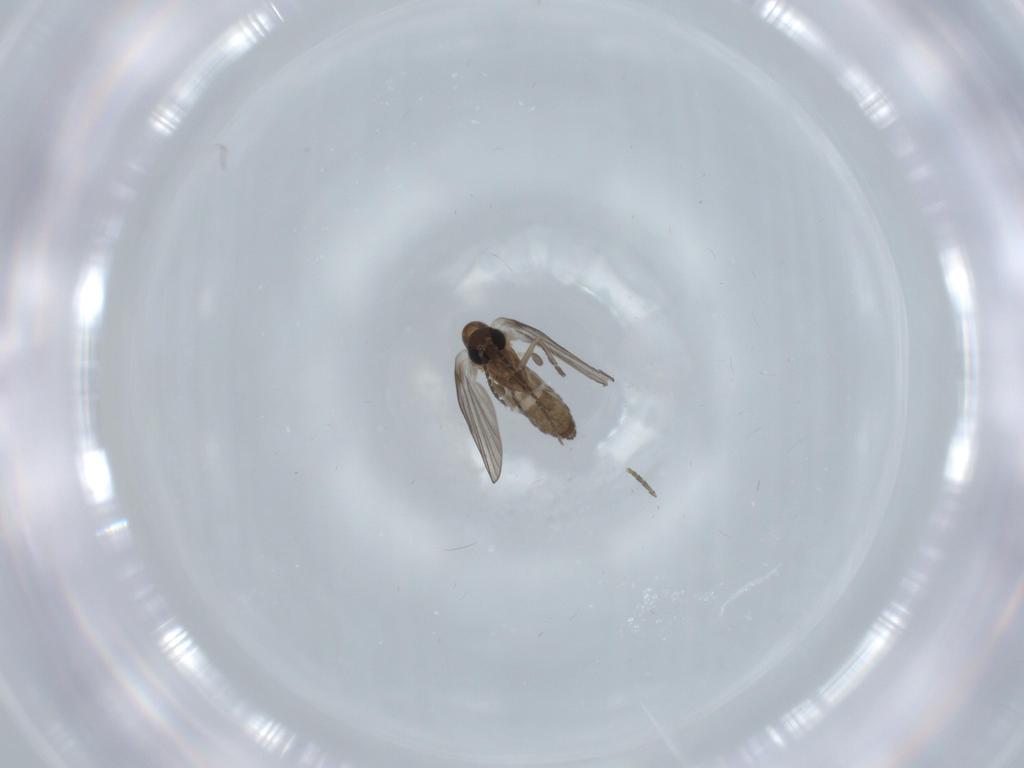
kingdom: Animalia
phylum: Arthropoda
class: Insecta
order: Diptera
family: Psychodidae
